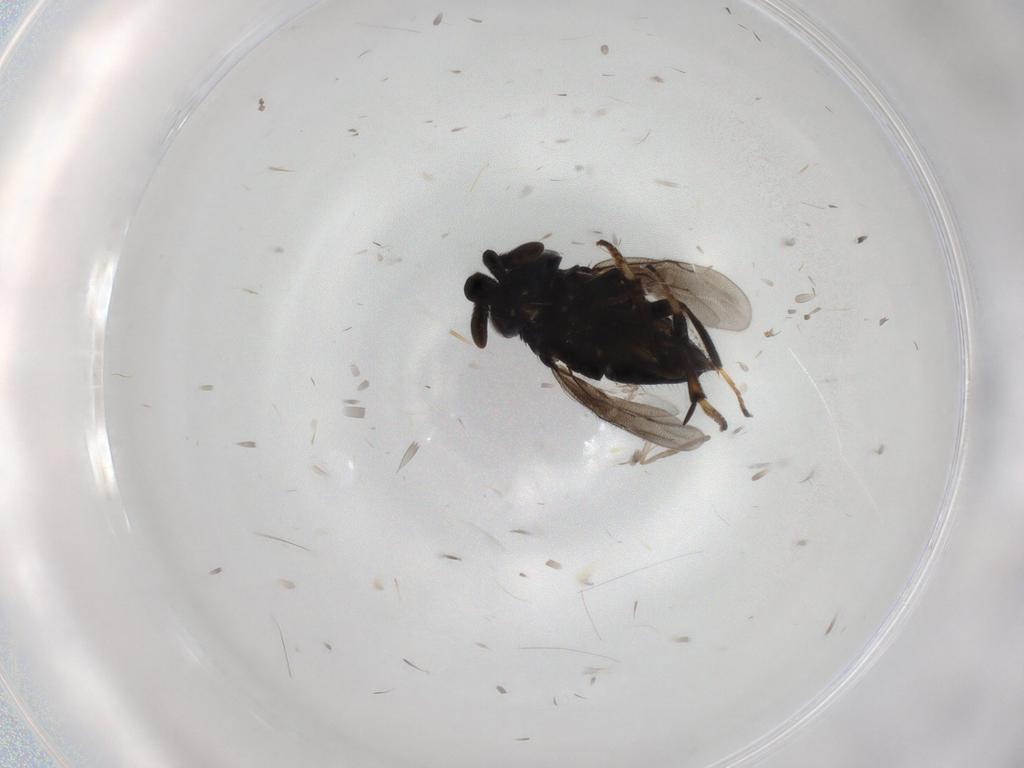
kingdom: Animalia
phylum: Arthropoda
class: Insecta
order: Hymenoptera
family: Encyrtidae
